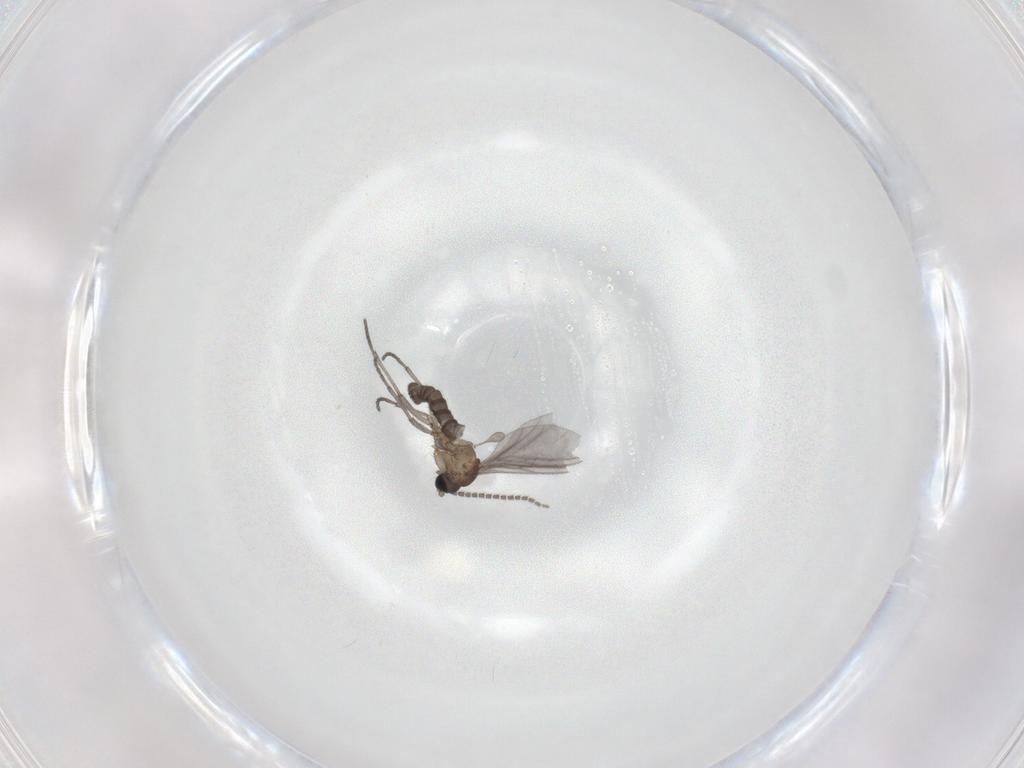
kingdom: Animalia
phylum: Arthropoda
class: Insecta
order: Diptera
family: Sciaridae
